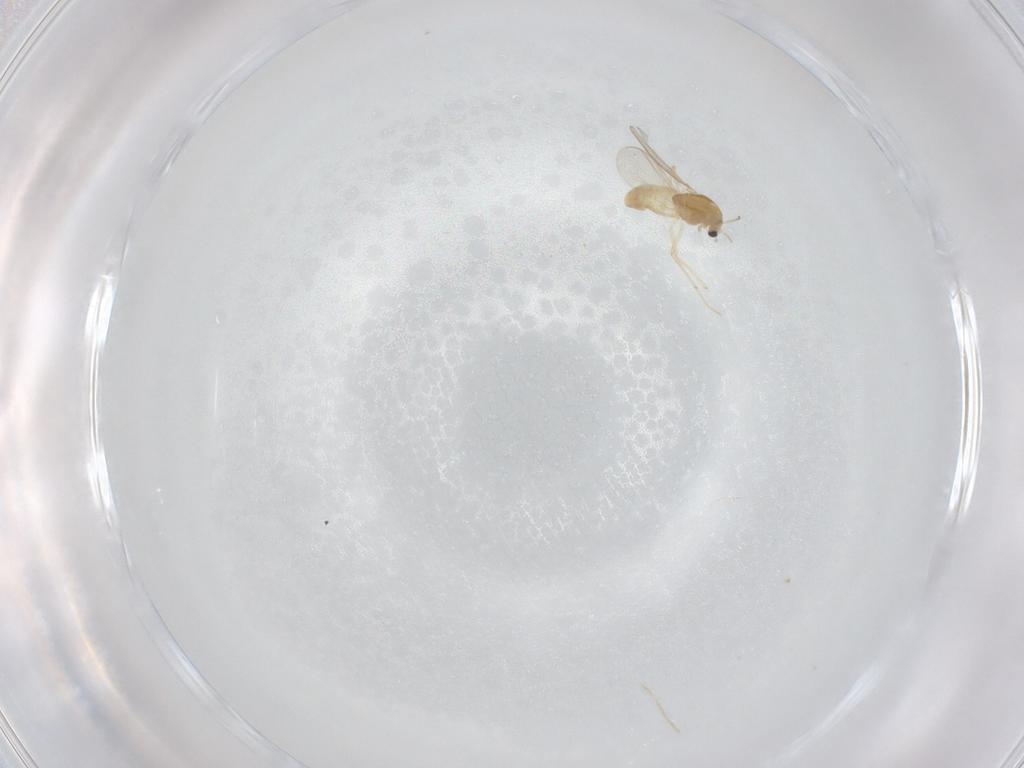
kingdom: Animalia
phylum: Arthropoda
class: Insecta
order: Diptera
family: Chironomidae
